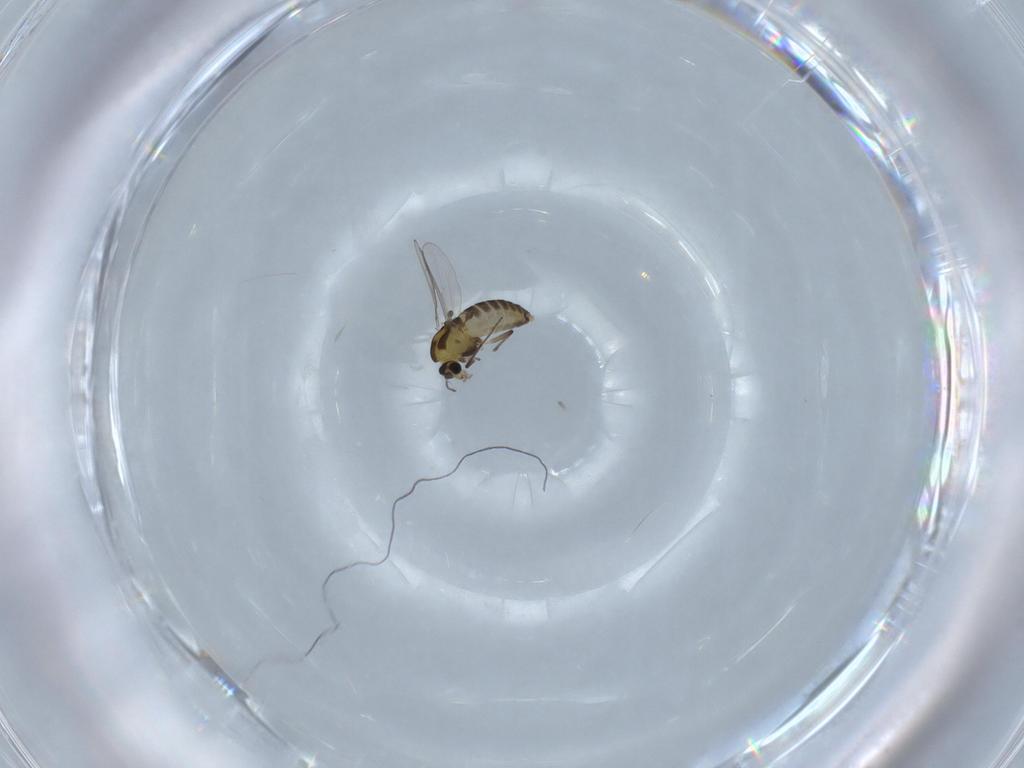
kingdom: Animalia
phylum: Arthropoda
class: Insecta
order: Diptera
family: Chironomidae
